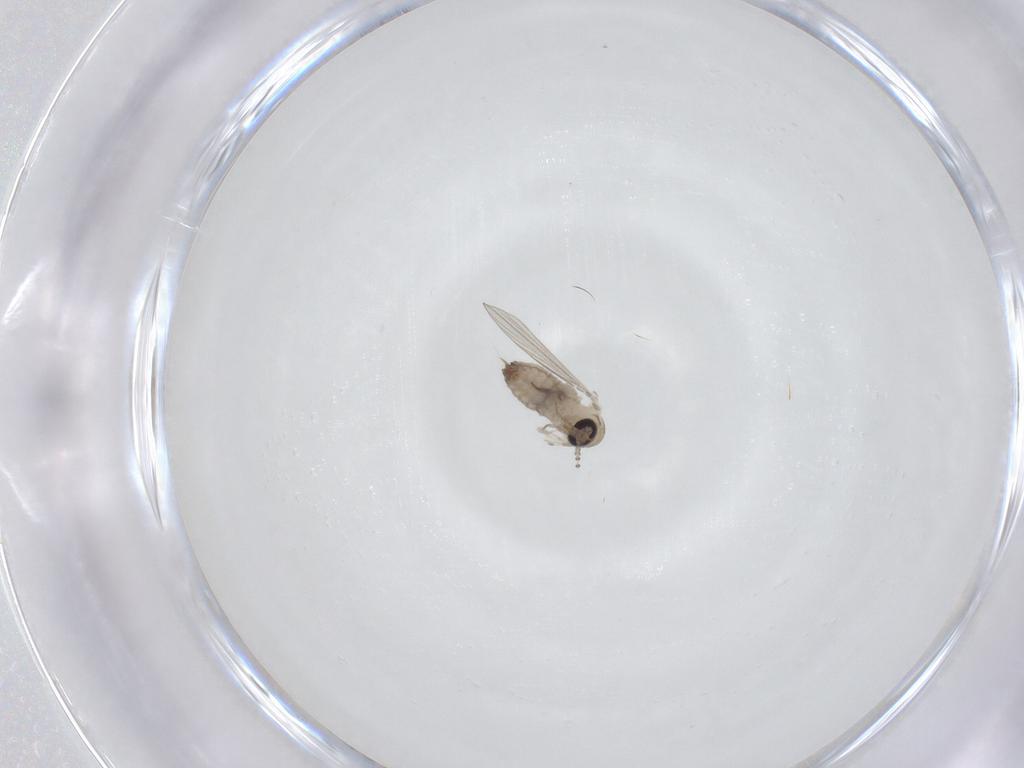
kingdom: Animalia
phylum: Arthropoda
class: Insecta
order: Diptera
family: Psychodidae
